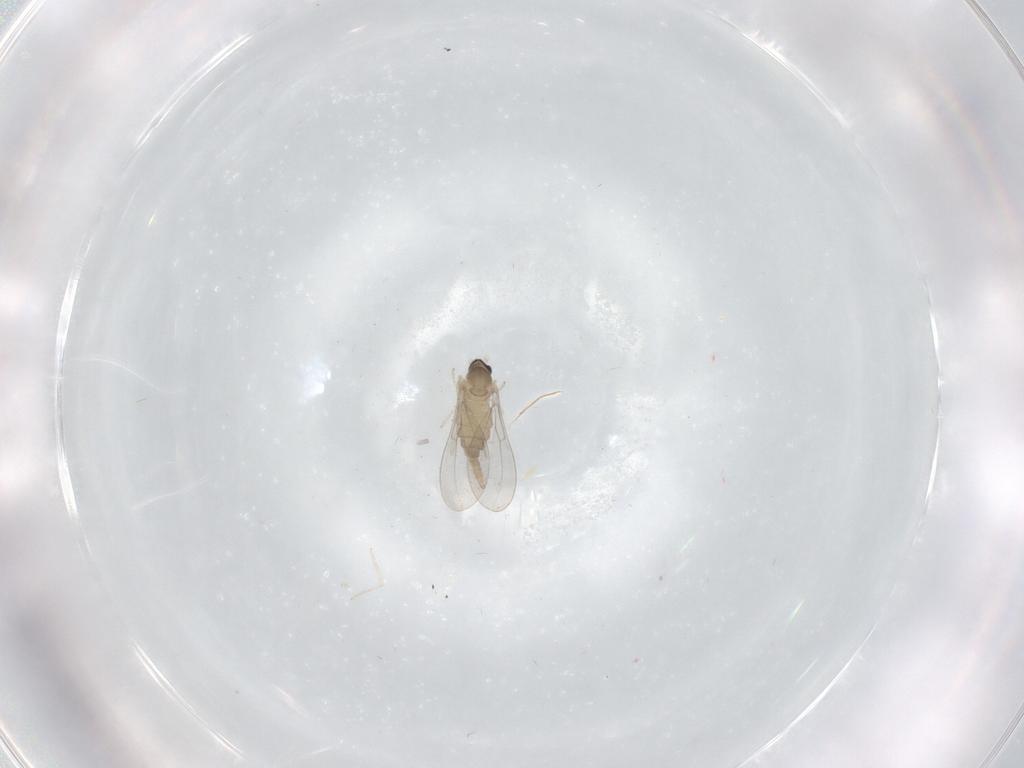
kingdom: Animalia
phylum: Arthropoda
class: Insecta
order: Diptera
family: Cecidomyiidae
